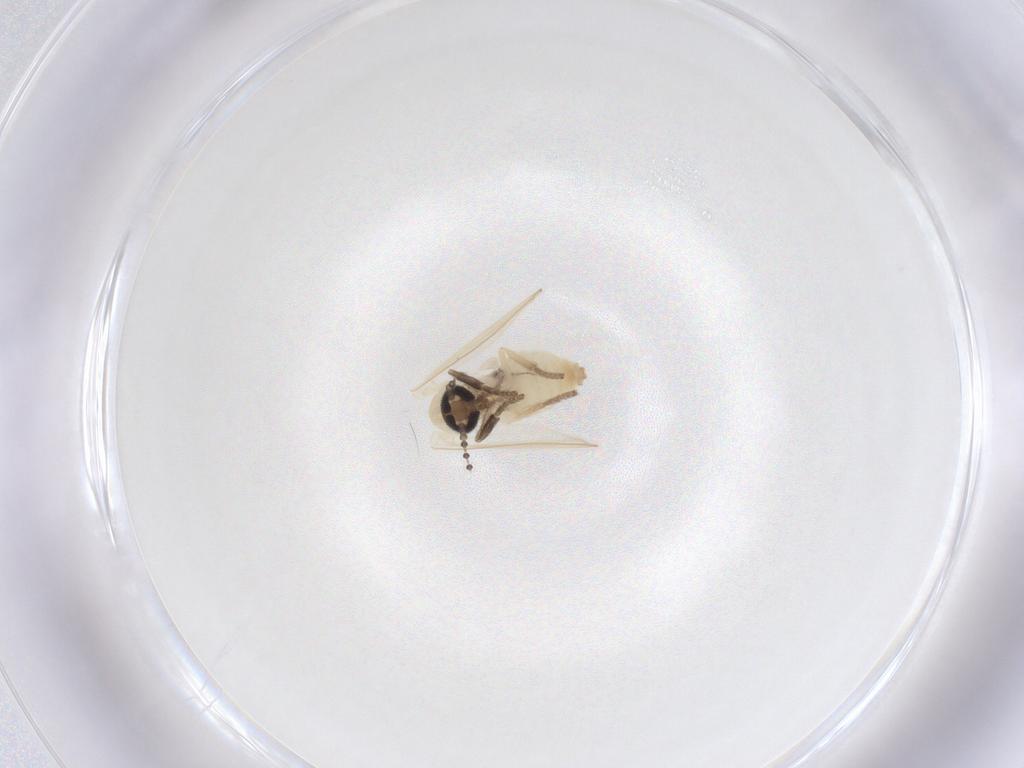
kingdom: Animalia
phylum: Arthropoda
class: Insecta
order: Diptera
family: Psychodidae
